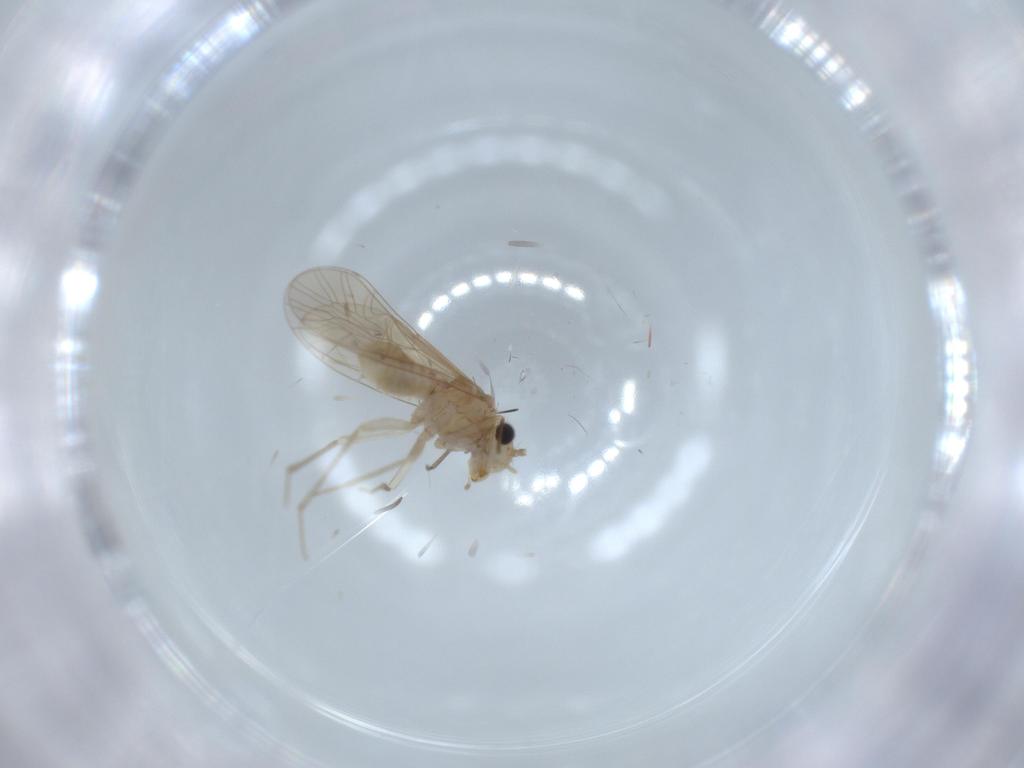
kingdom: Animalia
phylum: Arthropoda
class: Insecta
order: Psocodea
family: Caeciliusidae
